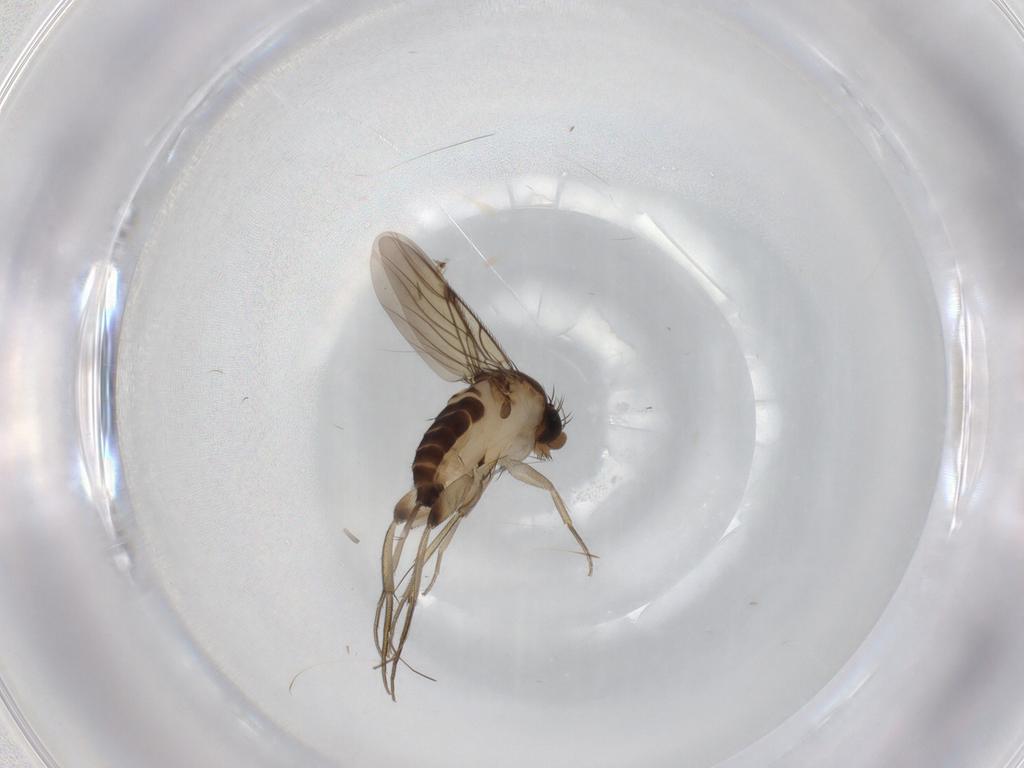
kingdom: Animalia
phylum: Arthropoda
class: Insecta
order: Diptera
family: Phoridae
